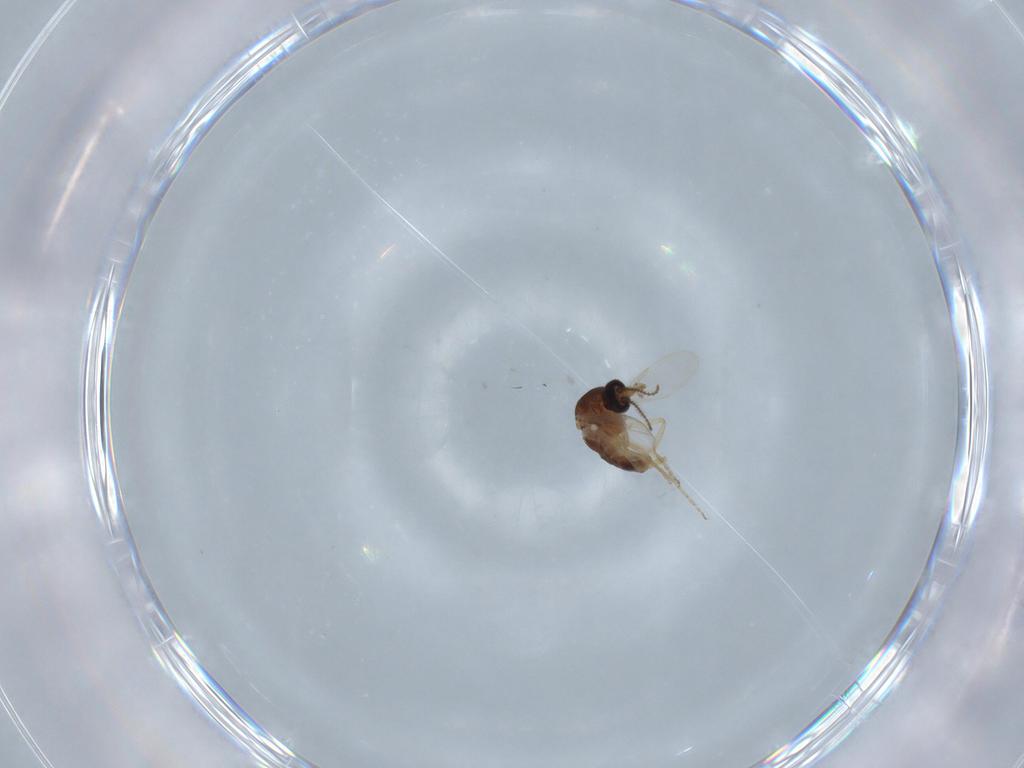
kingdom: Animalia
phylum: Arthropoda
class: Insecta
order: Diptera
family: Ceratopogonidae
